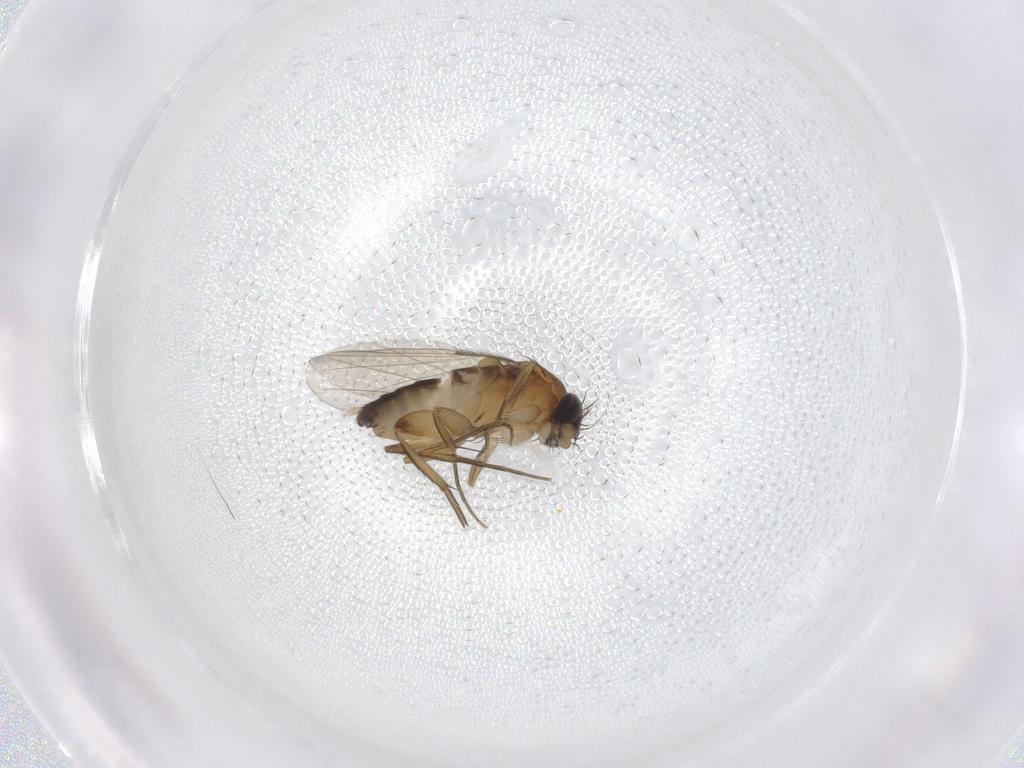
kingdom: Animalia
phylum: Arthropoda
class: Insecta
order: Diptera
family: Phoridae
